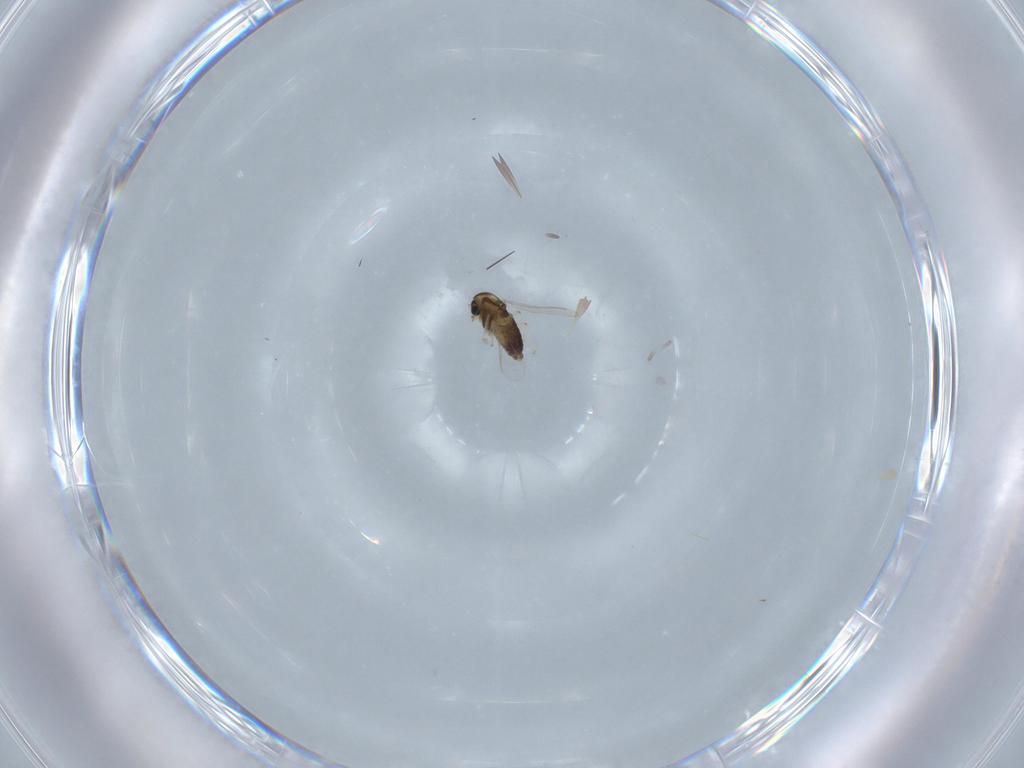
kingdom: Animalia
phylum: Arthropoda
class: Insecta
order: Diptera
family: Chironomidae
